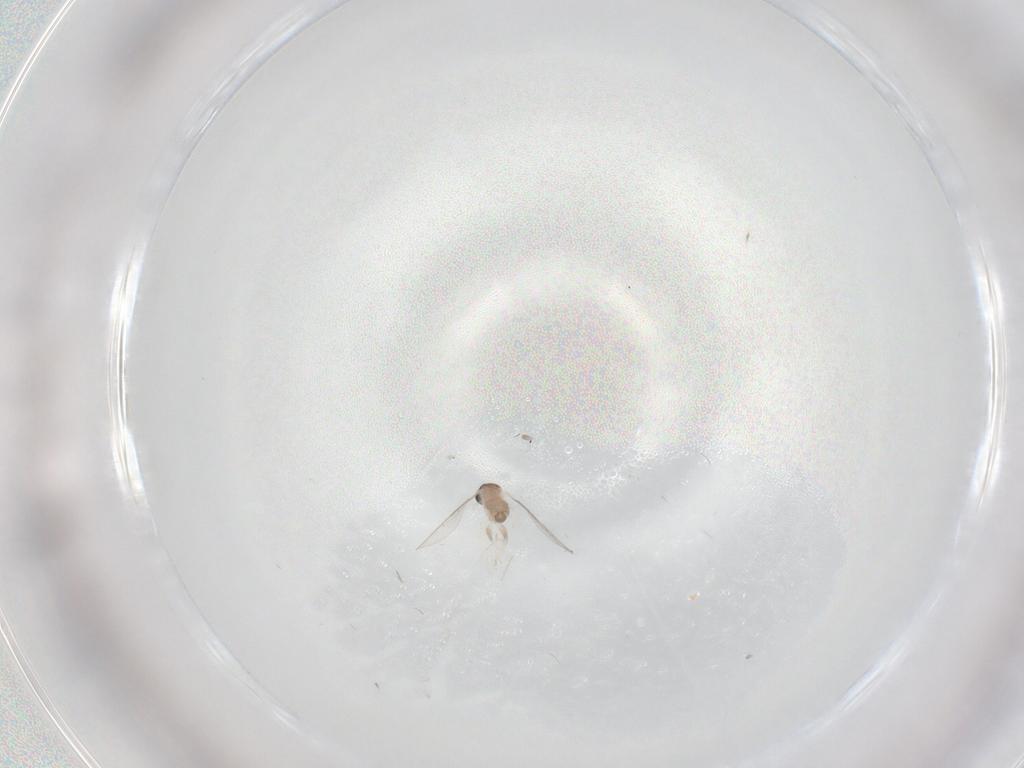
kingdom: Animalia
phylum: Arthropoda
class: Insecta
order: Diptera
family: Cecidomyiidae
